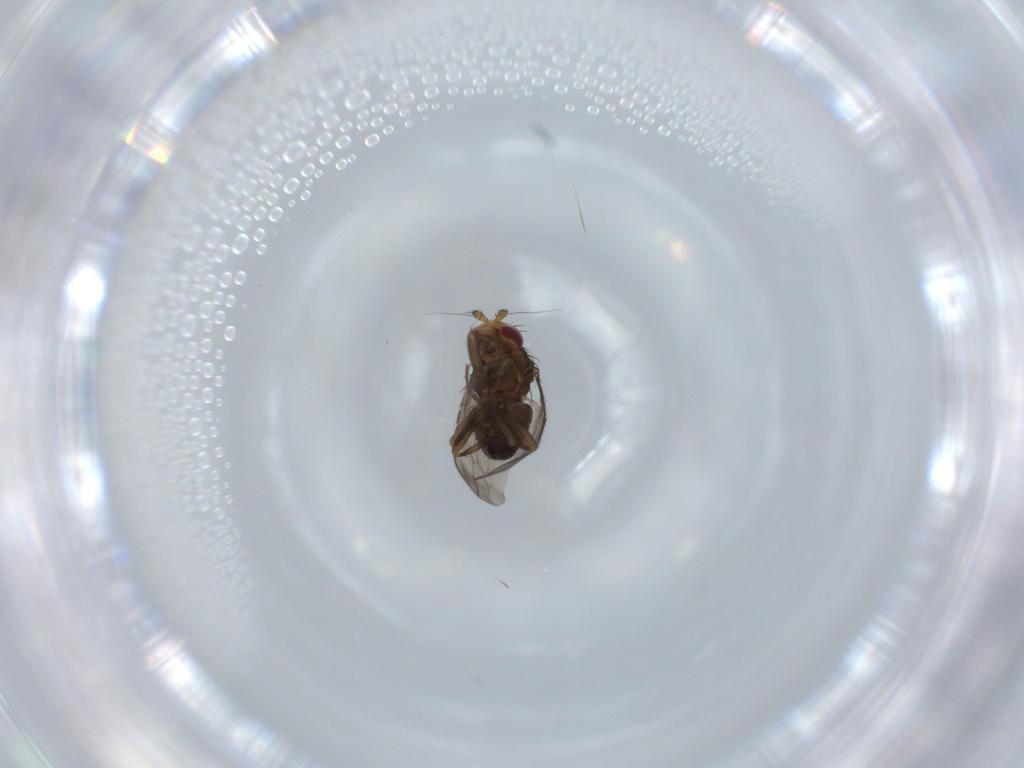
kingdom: Animalia
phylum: Arthropoda
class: Insecta
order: Diptera
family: Sphaeroceridae
